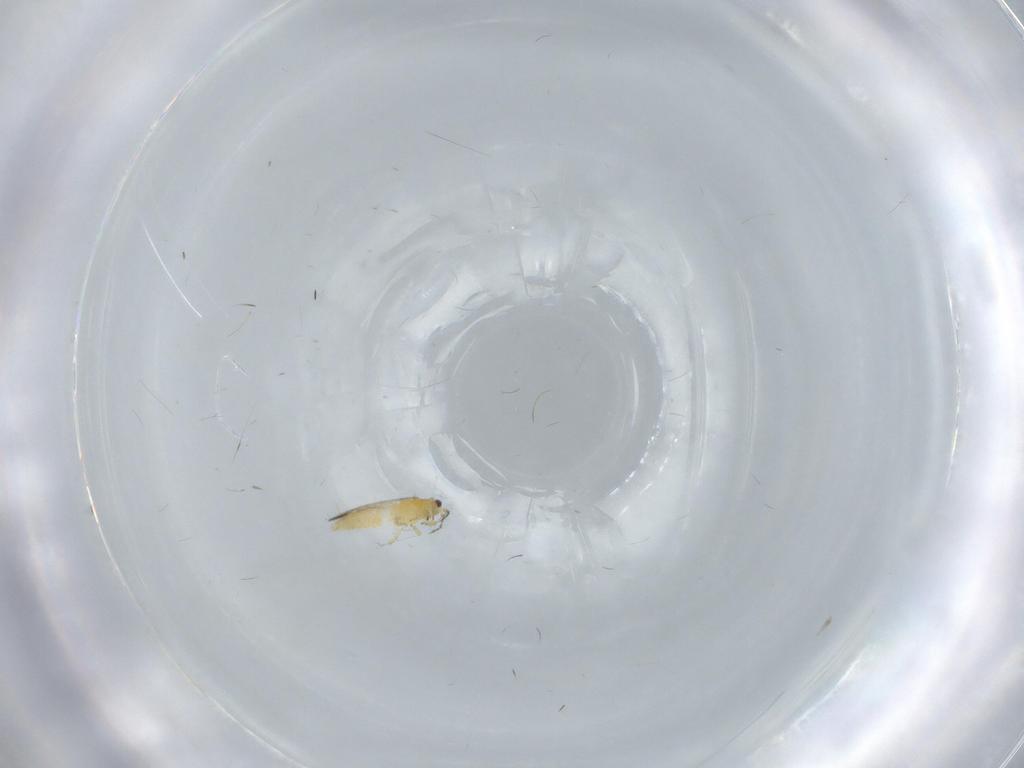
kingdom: Animalia
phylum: Arthropoda
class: Insecta
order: Thysanoptera
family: Thripidae
